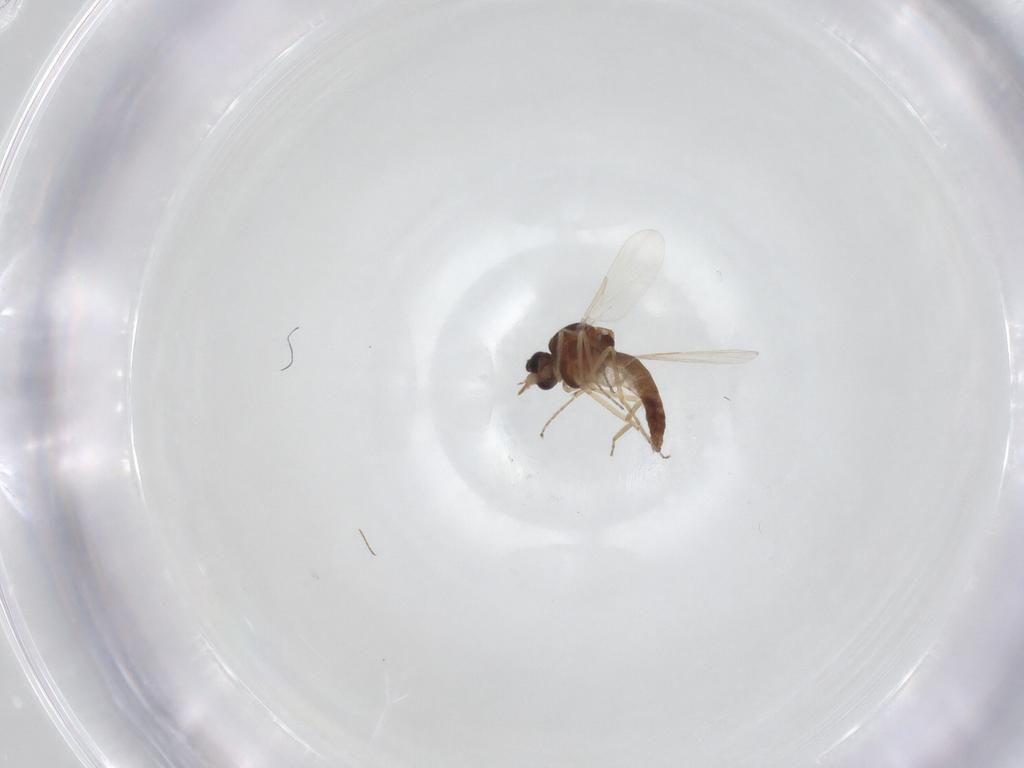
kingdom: Animalia
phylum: Arthropoda
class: Insecta
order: Diptera
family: Ceratopogonidae
